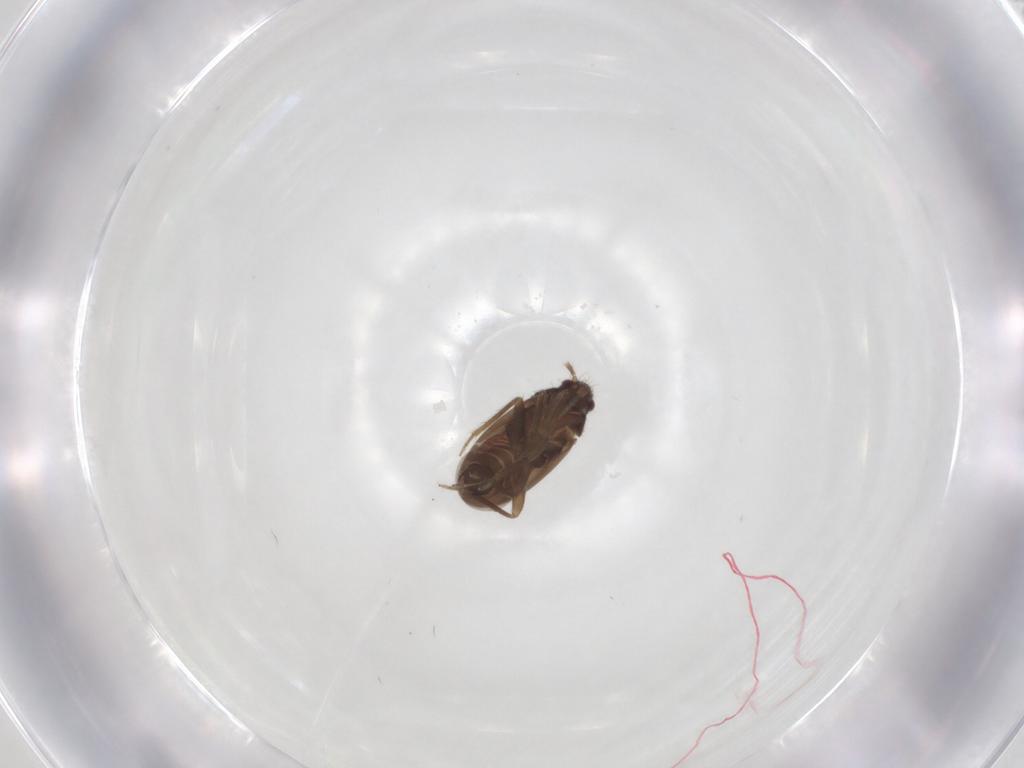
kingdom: Animalia
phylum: Arthropoda
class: Insecta
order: Hemiptera
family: Ceratocombidae
